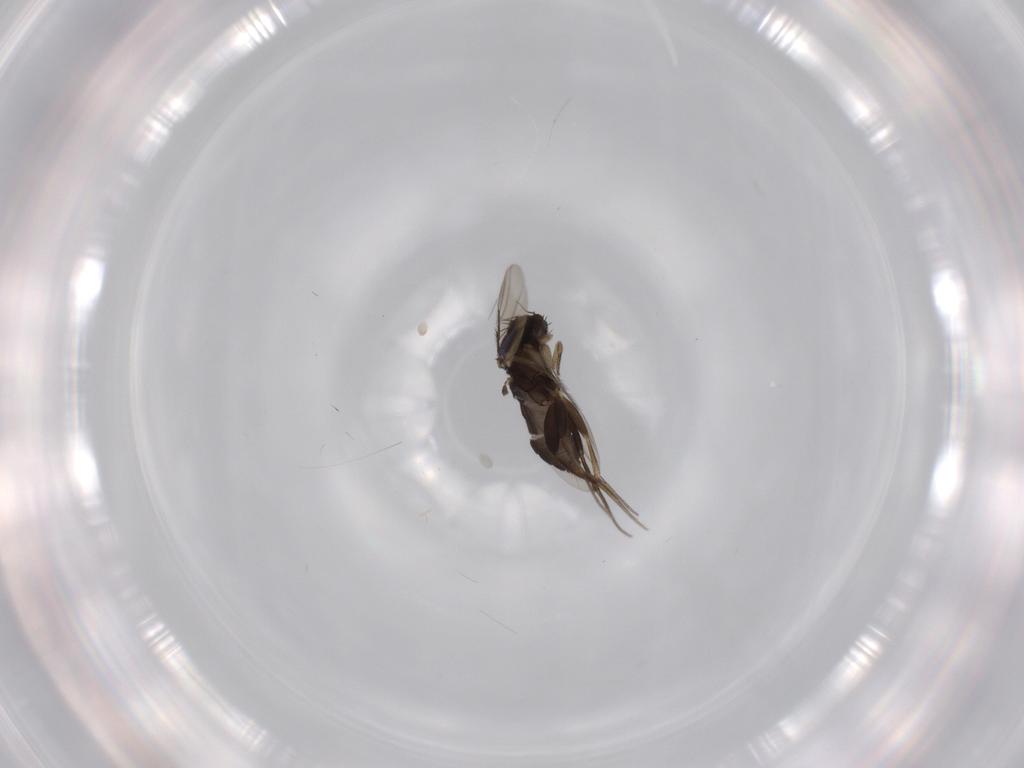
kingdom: Animalia
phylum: Arthropoda
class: Insecta
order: Diptera
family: Phoridae
